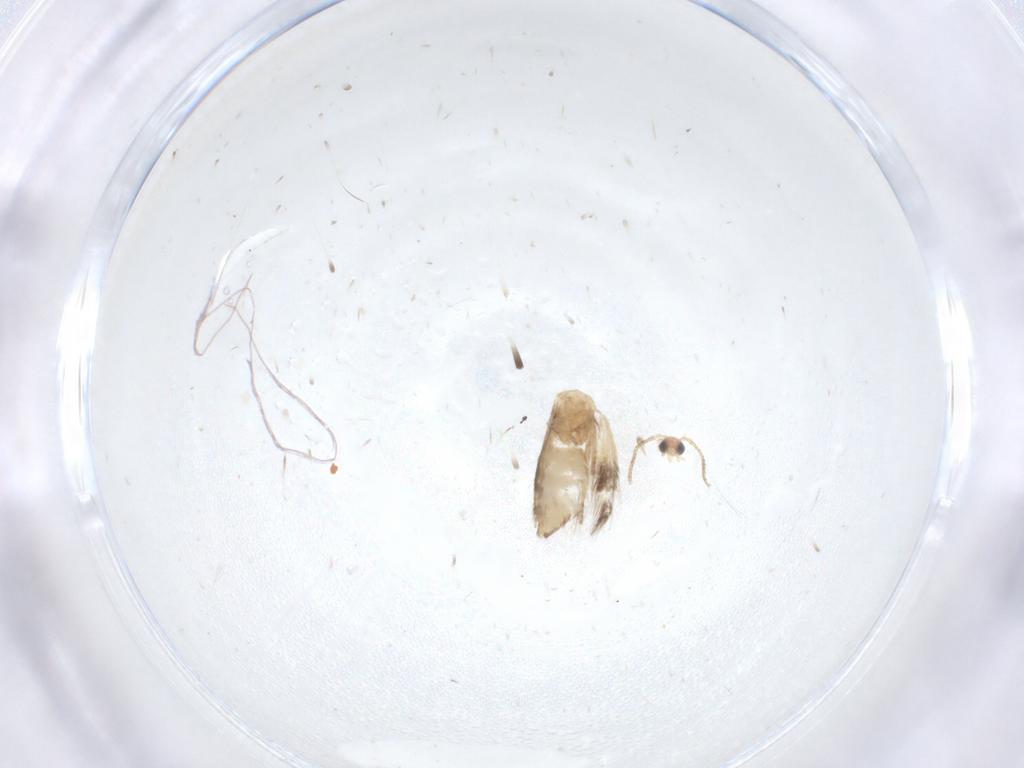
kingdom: Animalia
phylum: Arthropoda
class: Insecta
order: Lepidoptera
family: Nepticulidae
